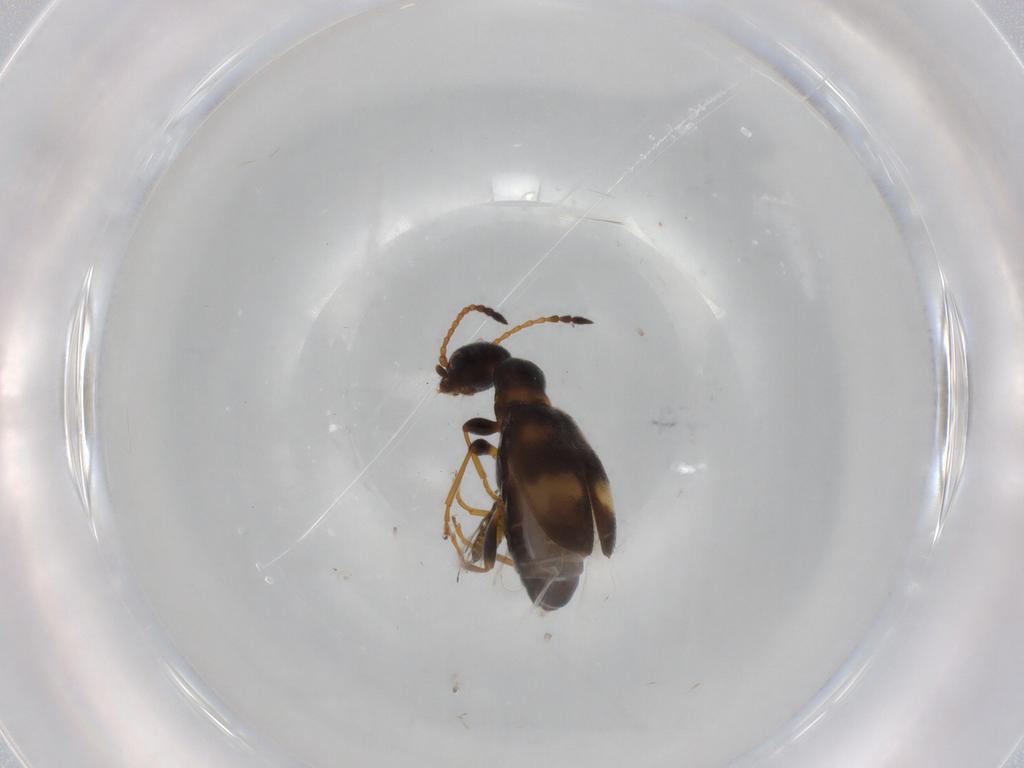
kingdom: Animalia
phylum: Arthropoda
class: Insecta
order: Coleoptera
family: Anthicidae
